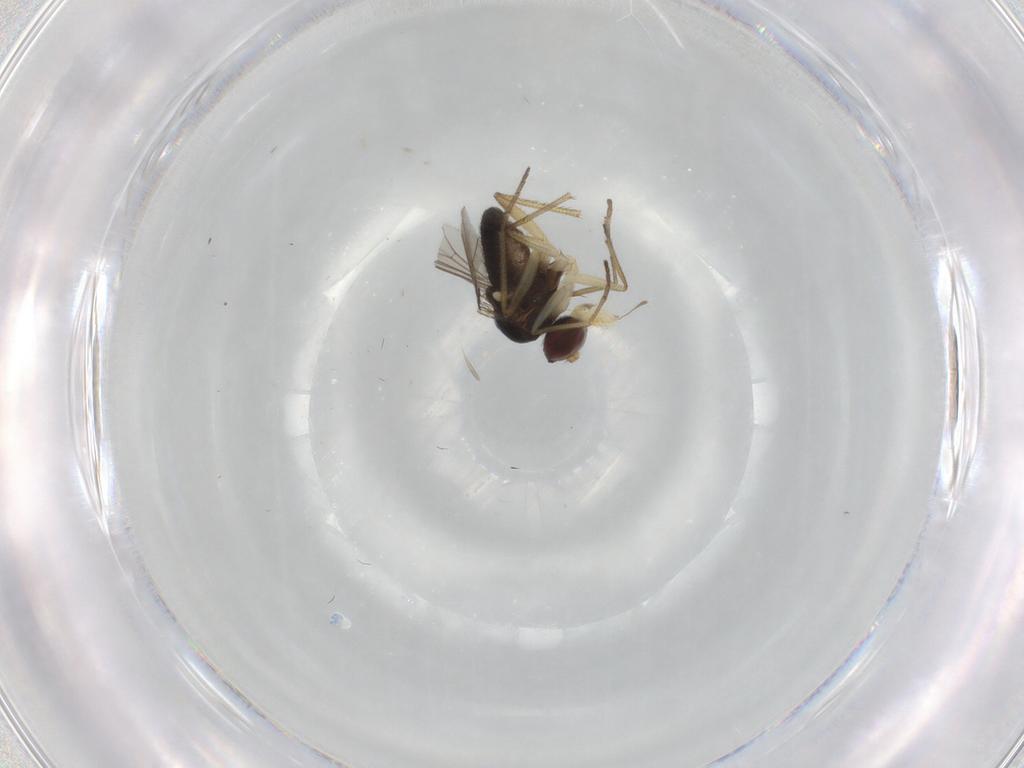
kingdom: Animalia
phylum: Arthropoda
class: Insecta
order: Diptera
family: Dolichopodidae
